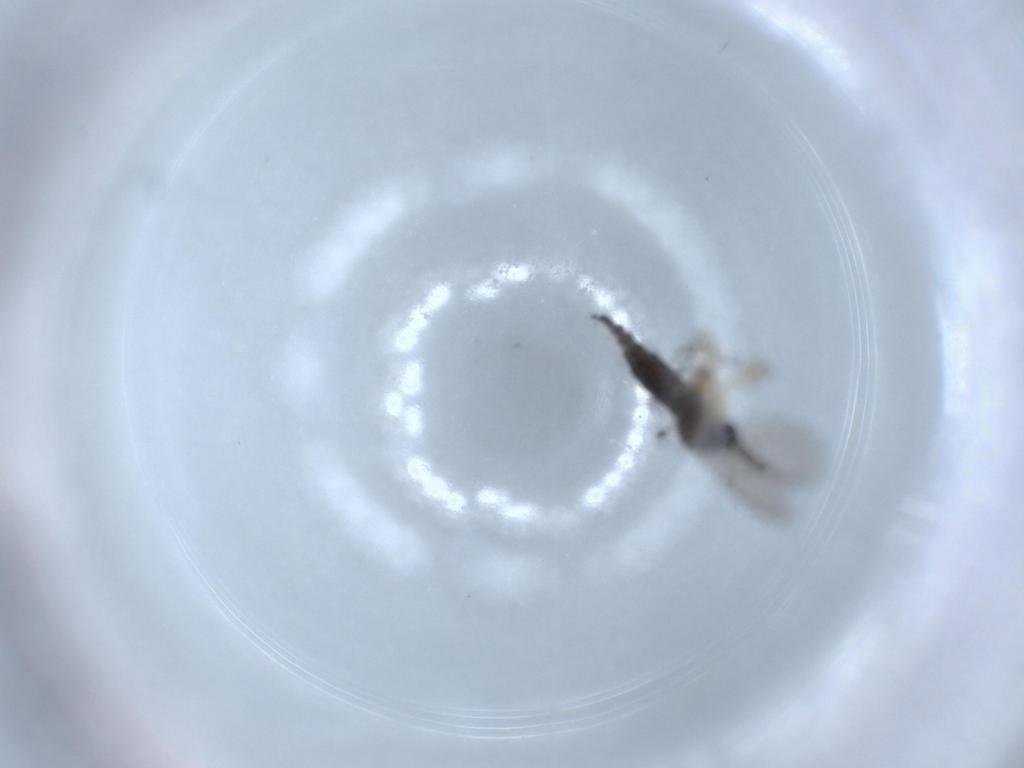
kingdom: Animalia
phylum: Arthropoda
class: Insecta
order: Diptera
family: Sciaridae
